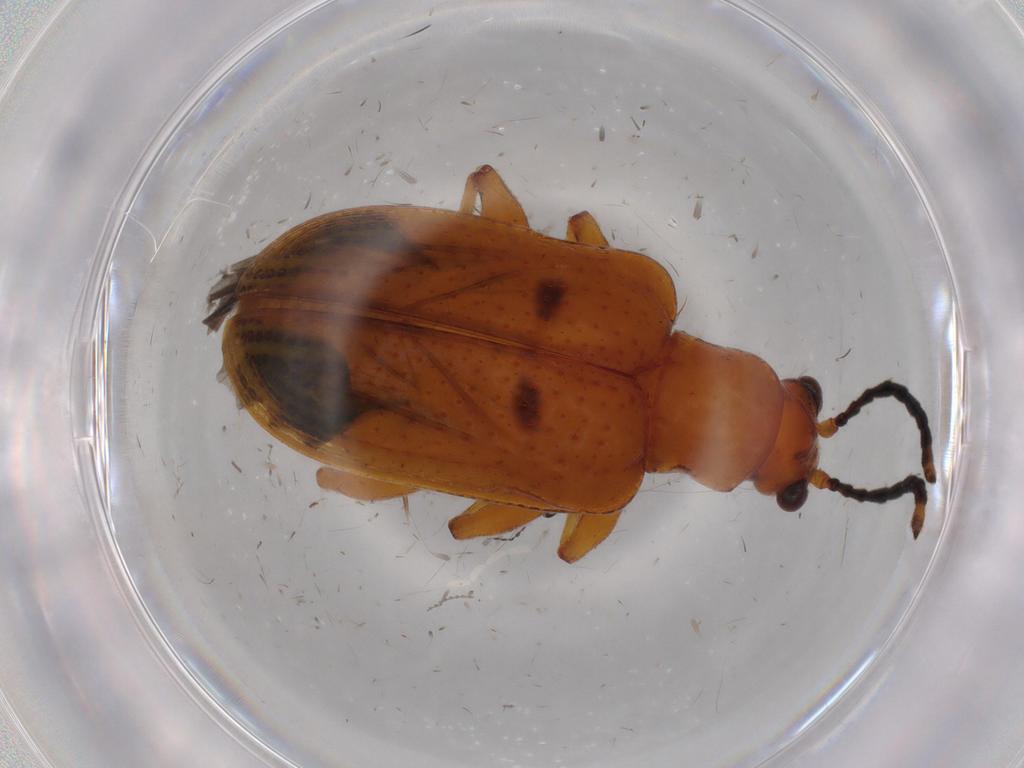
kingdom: Animalia
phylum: Arthropoda
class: Insecta
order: Coleoptera
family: Chrysomelidae
